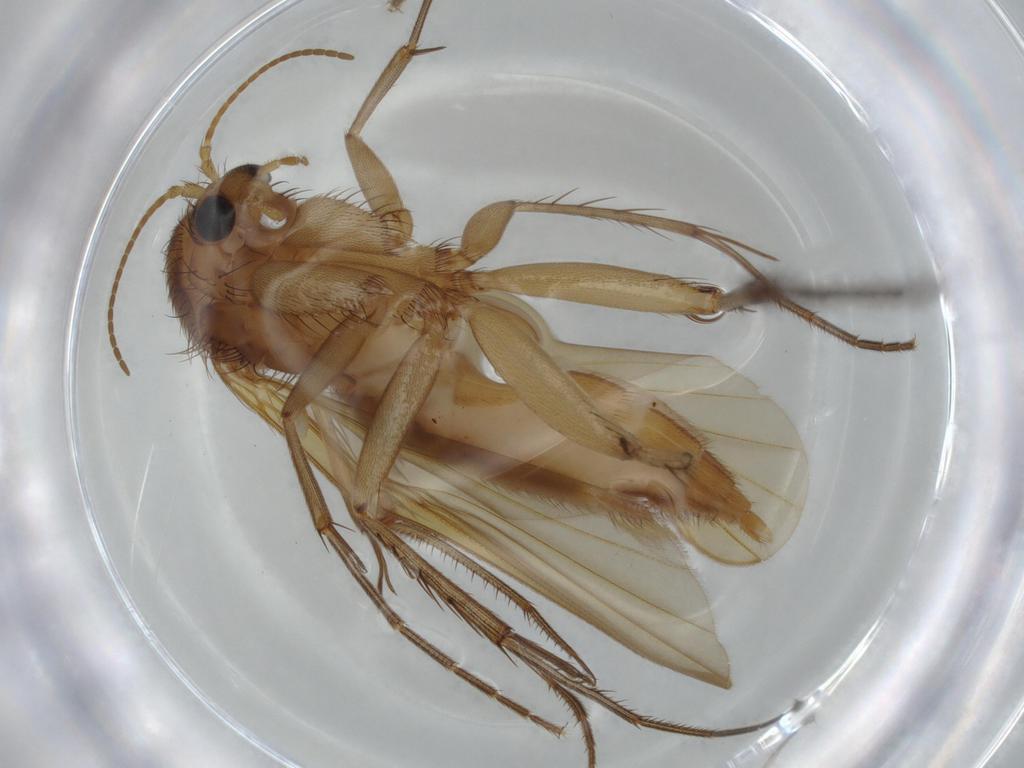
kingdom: Animalia
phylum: Arthropoda
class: Insecta
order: Diptera
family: Mycetophilidae
